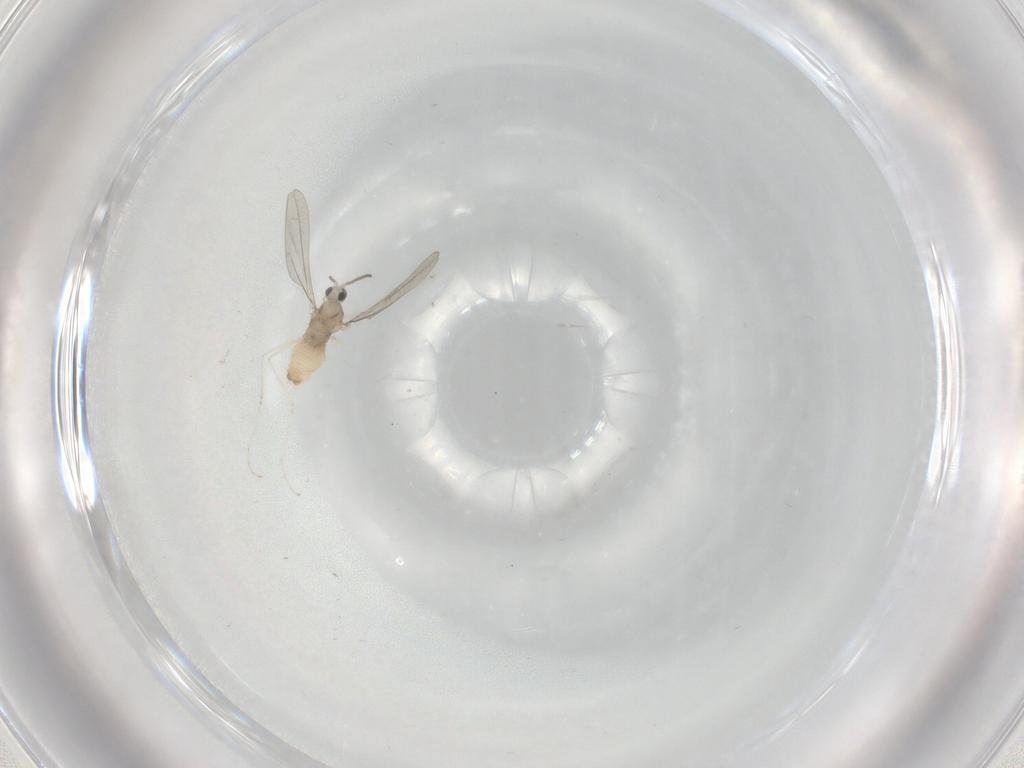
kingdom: Animalia
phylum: Arthropoda
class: Insecta
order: Diptera
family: Cecidomyiidae
